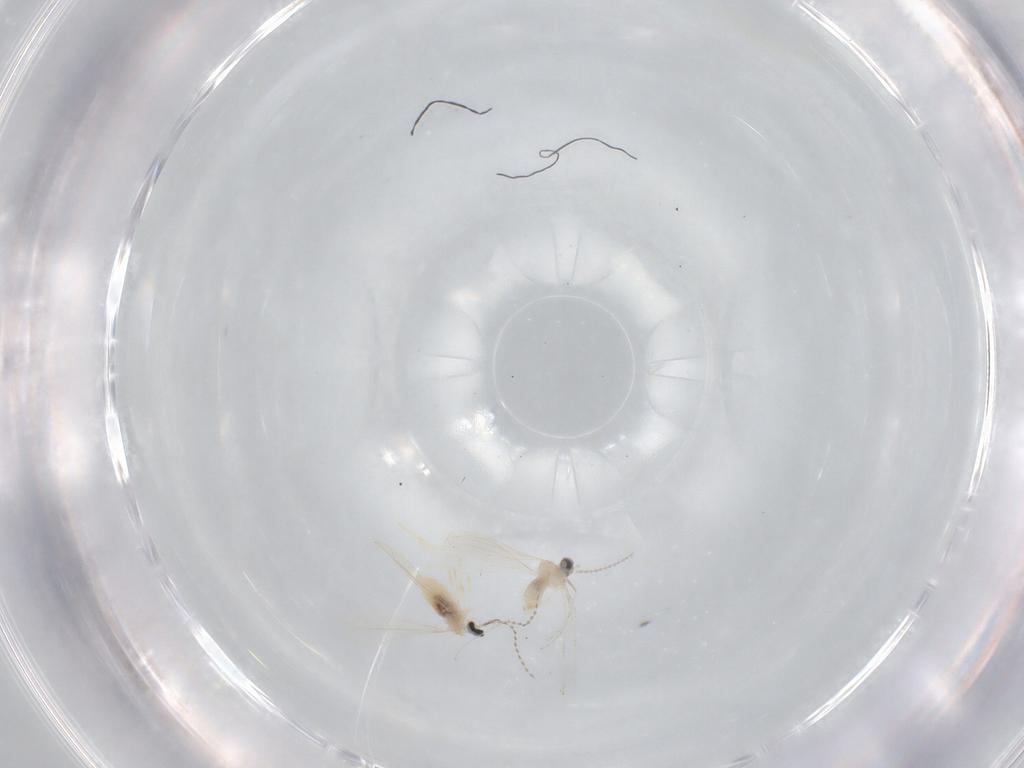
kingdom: Animalia
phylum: Arthropoda
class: Insecta
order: Diptera
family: Cecidomyiidae
